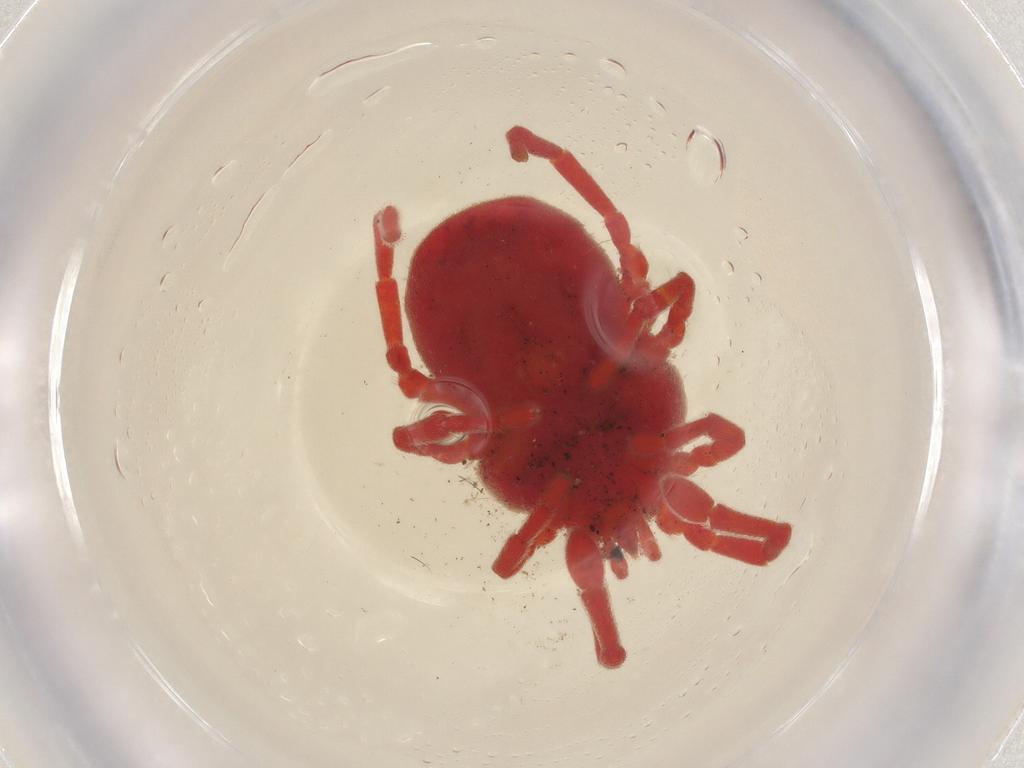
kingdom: Animalia
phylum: Arthropoda
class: Arachnida
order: Trombidiformes
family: Erythraeidae
